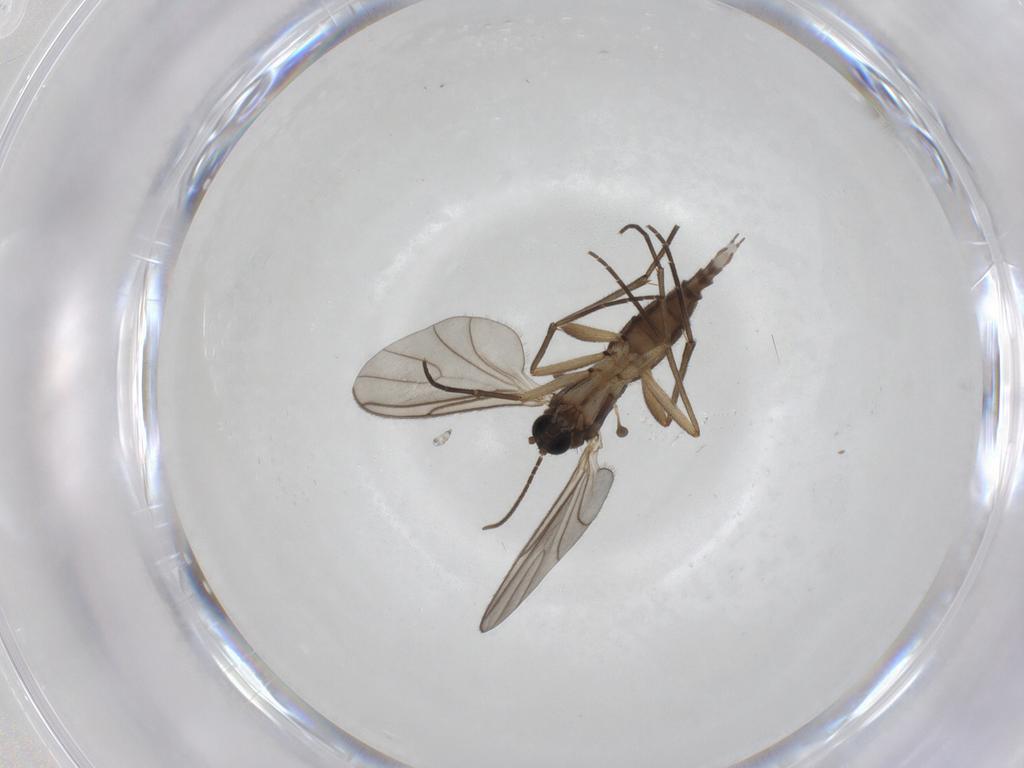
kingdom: Animalia
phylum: Arthropoda
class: Insecta
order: Diptera
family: Sciaridae
